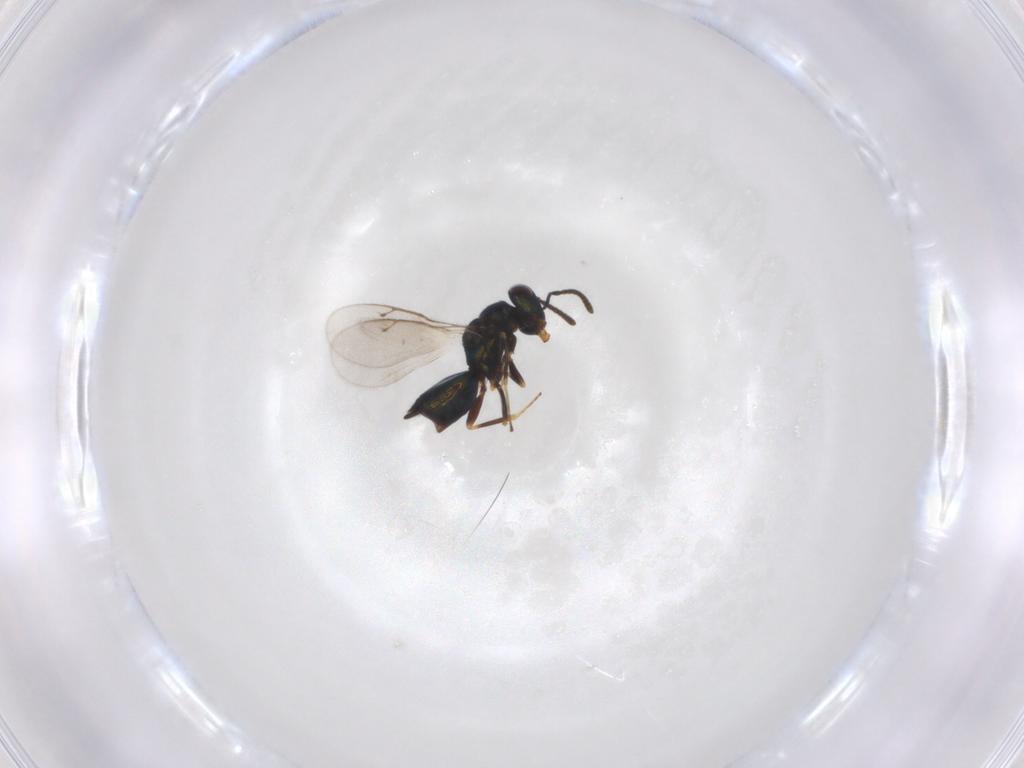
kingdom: Animalia
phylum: Arthropoda
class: Insecta
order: Hymenoptera
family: Pteromalidae
